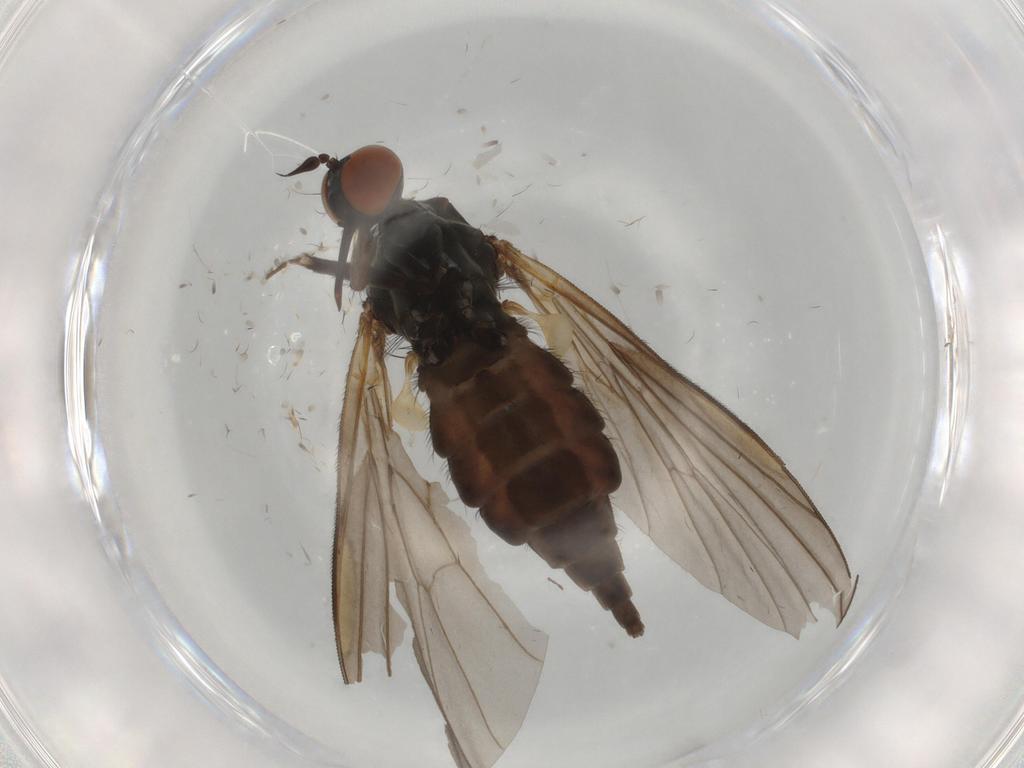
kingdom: Animalia
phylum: Arthropoda
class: Insecta
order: Diptera
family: Empididae
